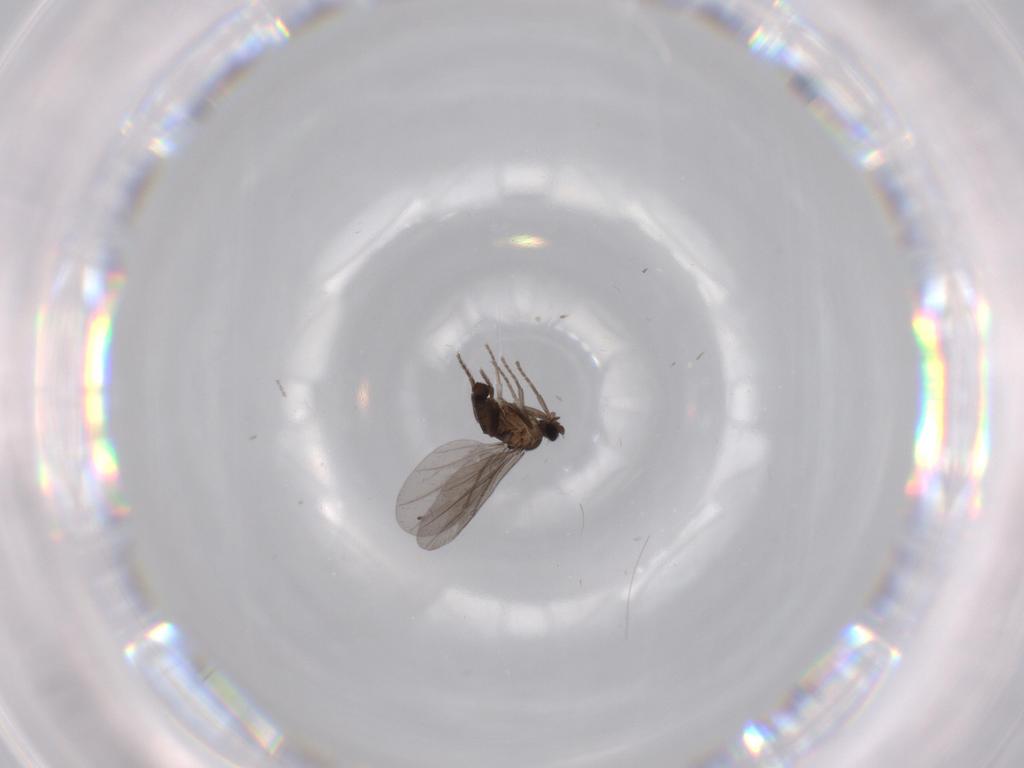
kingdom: Animalia
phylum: Arthropoda
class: Insecta
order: Diptera
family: Phoridae
